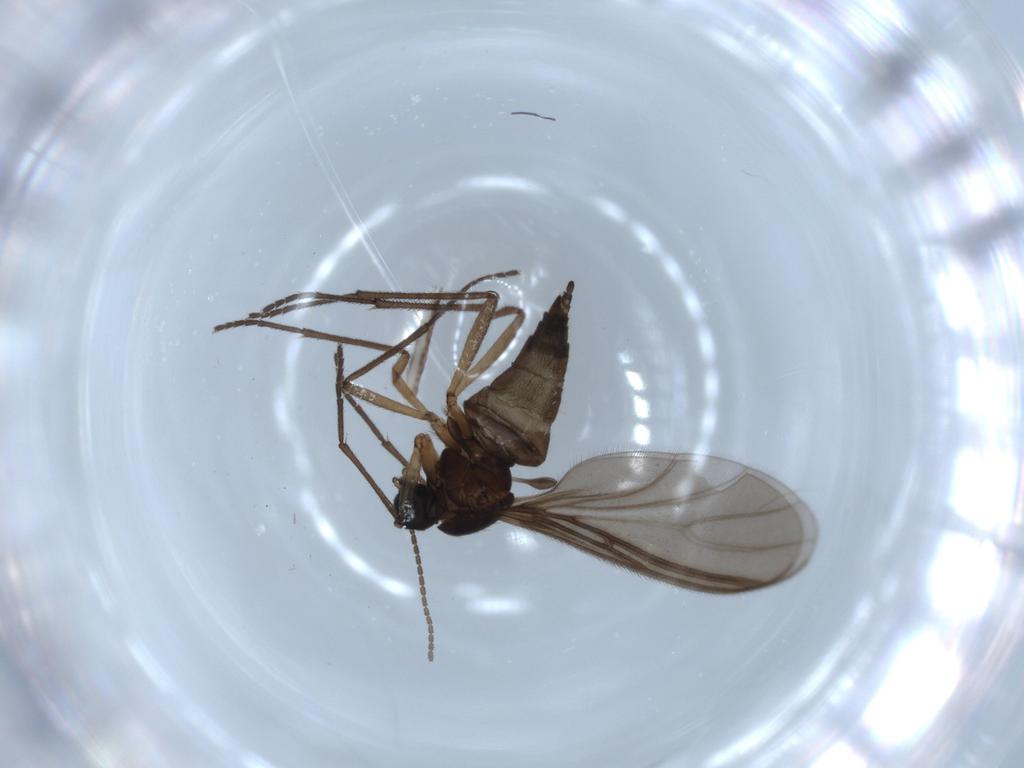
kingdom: Animalia
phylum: Arthropoda
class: Insecta
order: Diptera
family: Sciaridae
